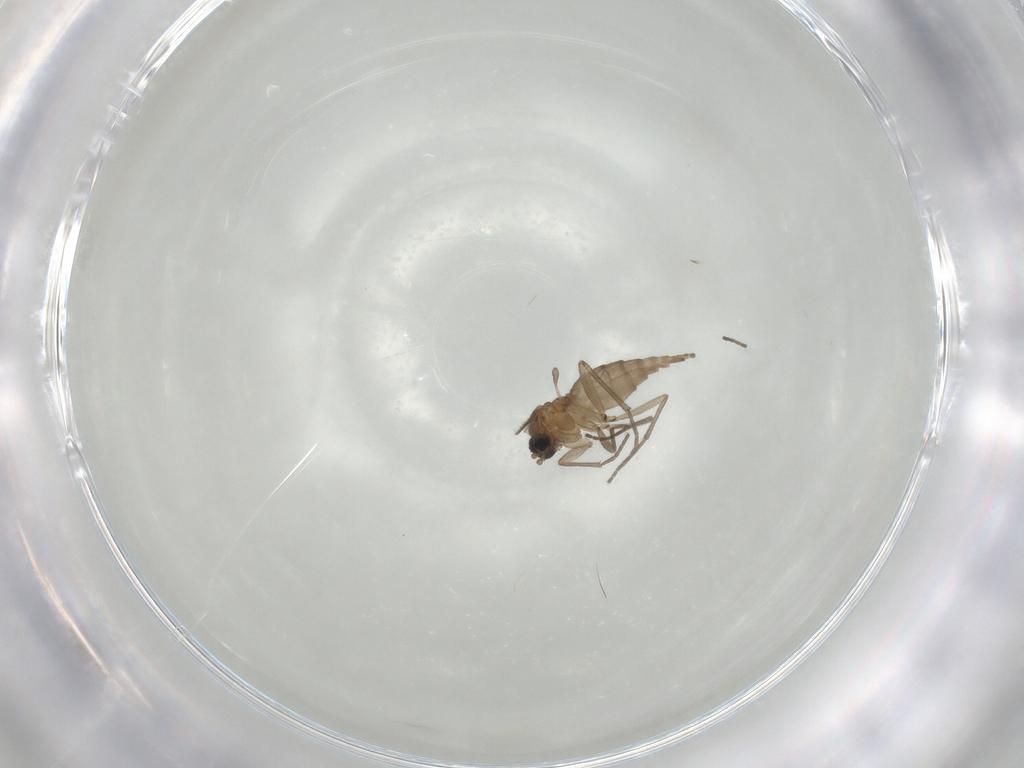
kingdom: Animalia
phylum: Arthropoda
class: Insecta
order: Diptera
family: Sciaridae
